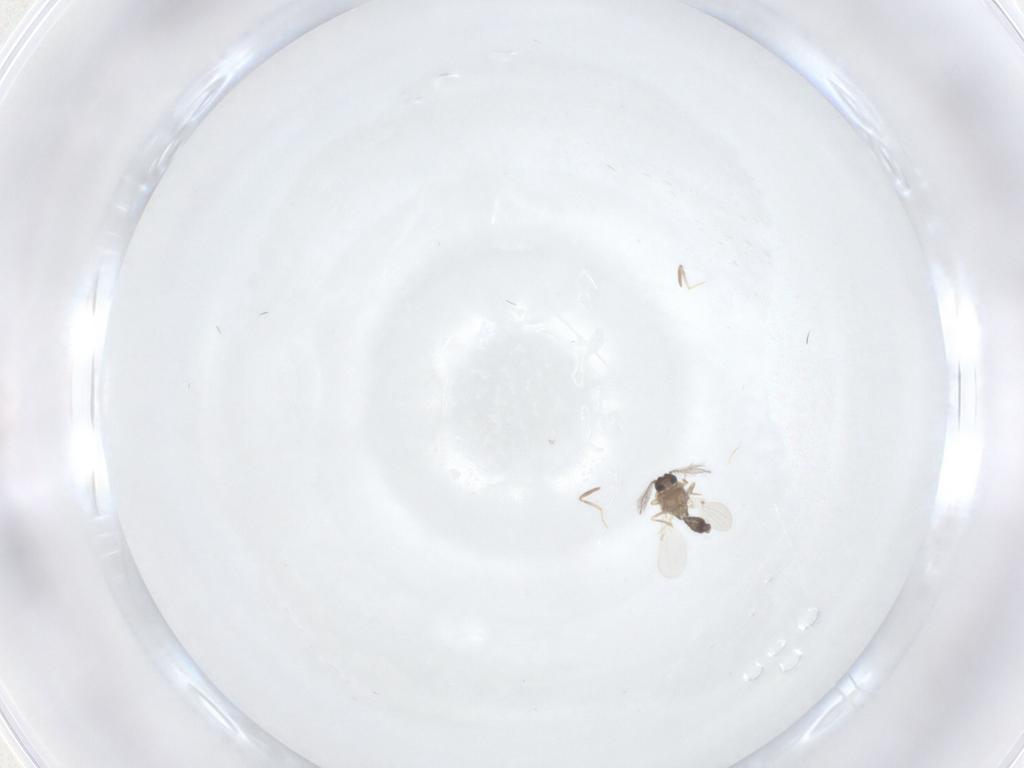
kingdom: Animalia
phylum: Arthropoda
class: Insecta
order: Diptera
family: Ceratopogonidae
